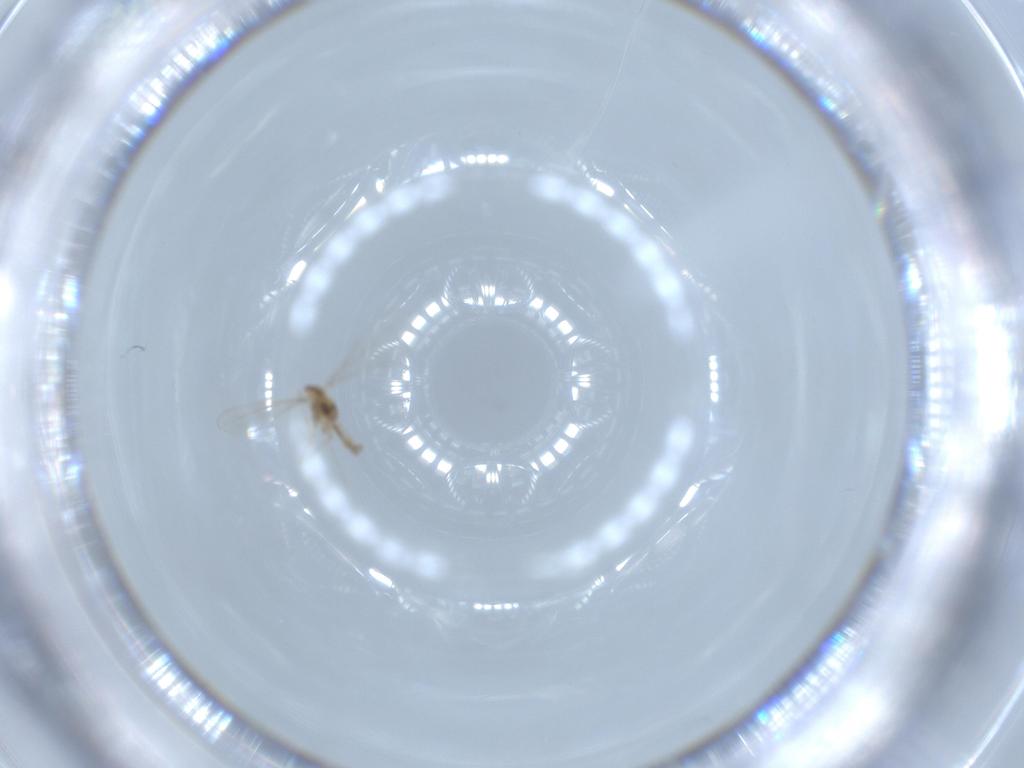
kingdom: Animalia
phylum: Arthropoda
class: Insecta
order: Diptera
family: Cecidomyiidae
